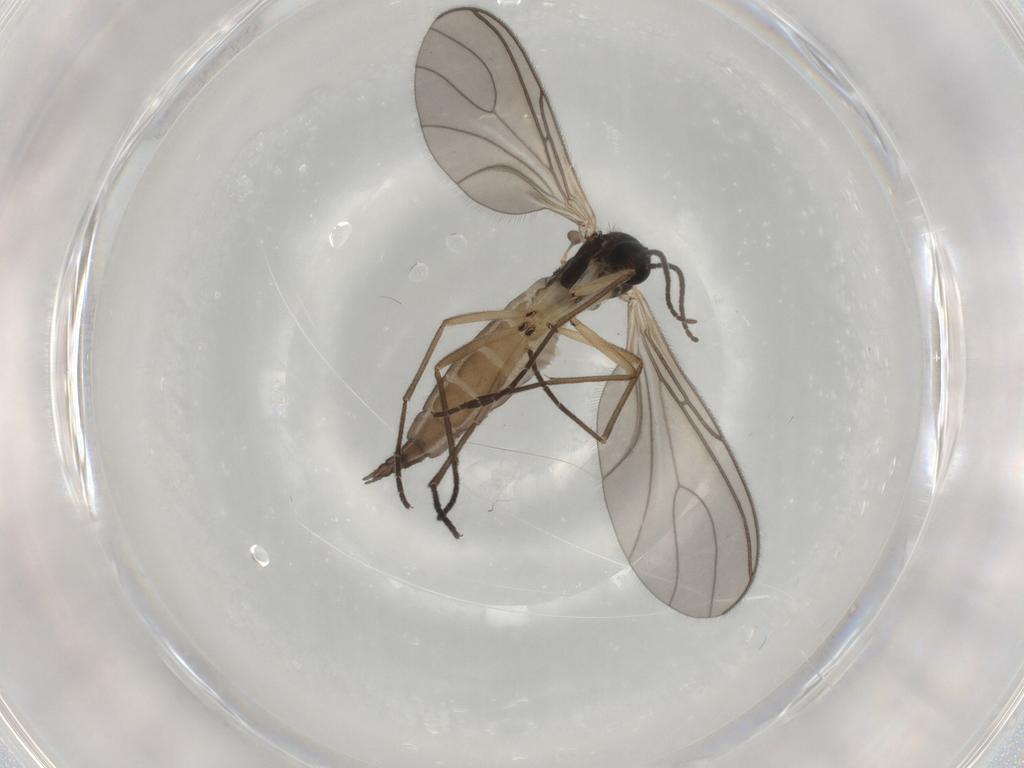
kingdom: Animalia
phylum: Arthropoda
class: Insecta
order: Diptera
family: Sciaridae
